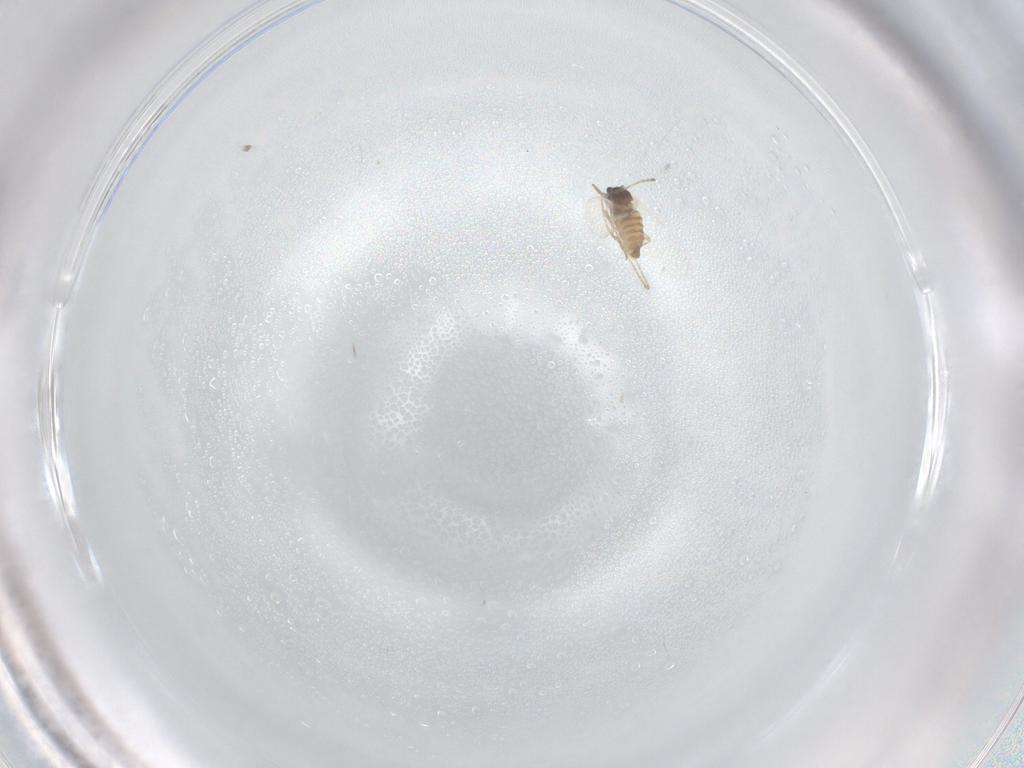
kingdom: Animalia
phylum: Arthropoda
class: Insecta
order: Diptera
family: Cecidomyiidae
